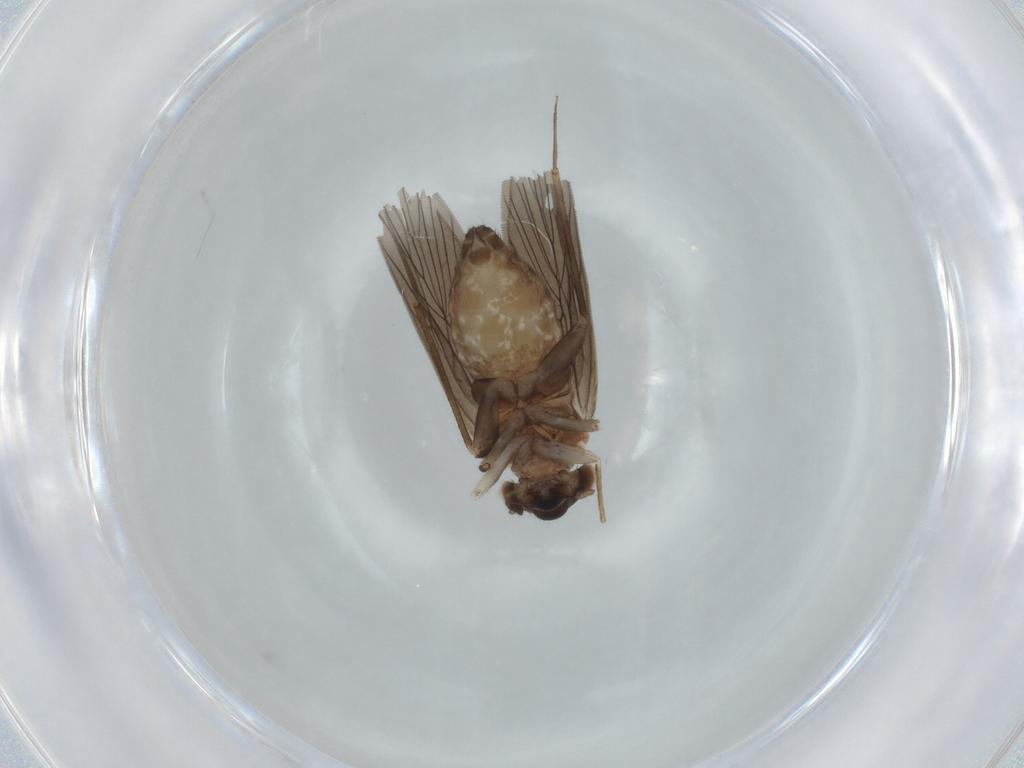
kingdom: Animalia
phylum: Arthropoda
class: Insecta
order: Psocodea
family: Lepidopsocidae
